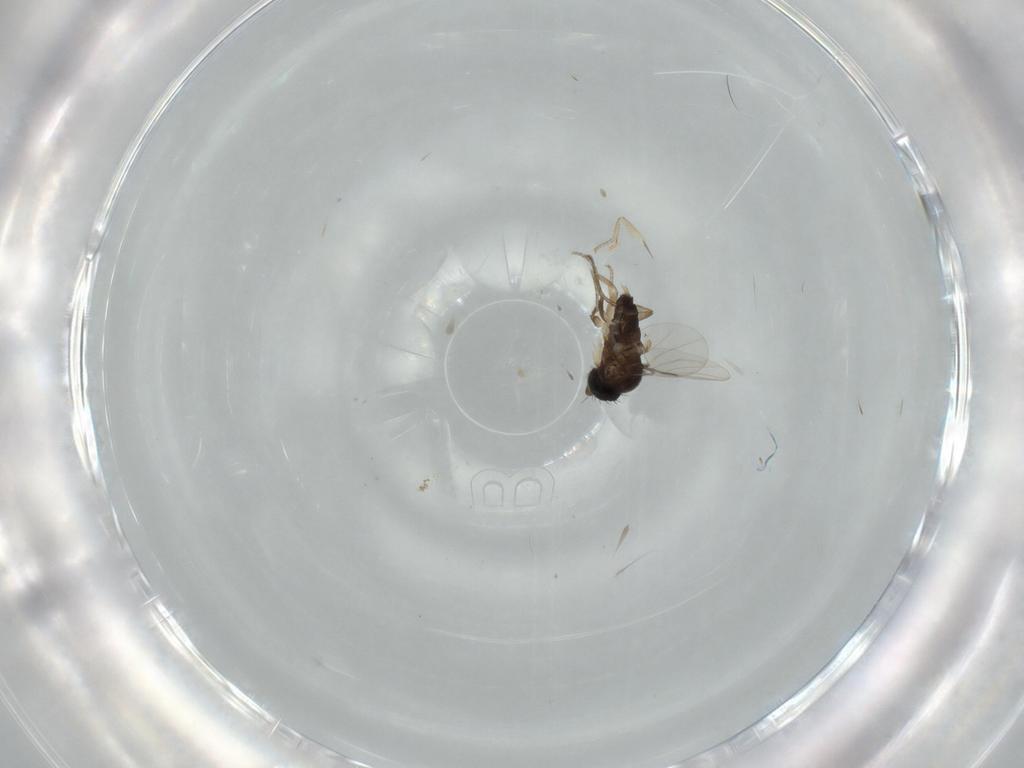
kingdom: Animalia
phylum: Arthropoda
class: Insecta
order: Diptera
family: Phoridae
